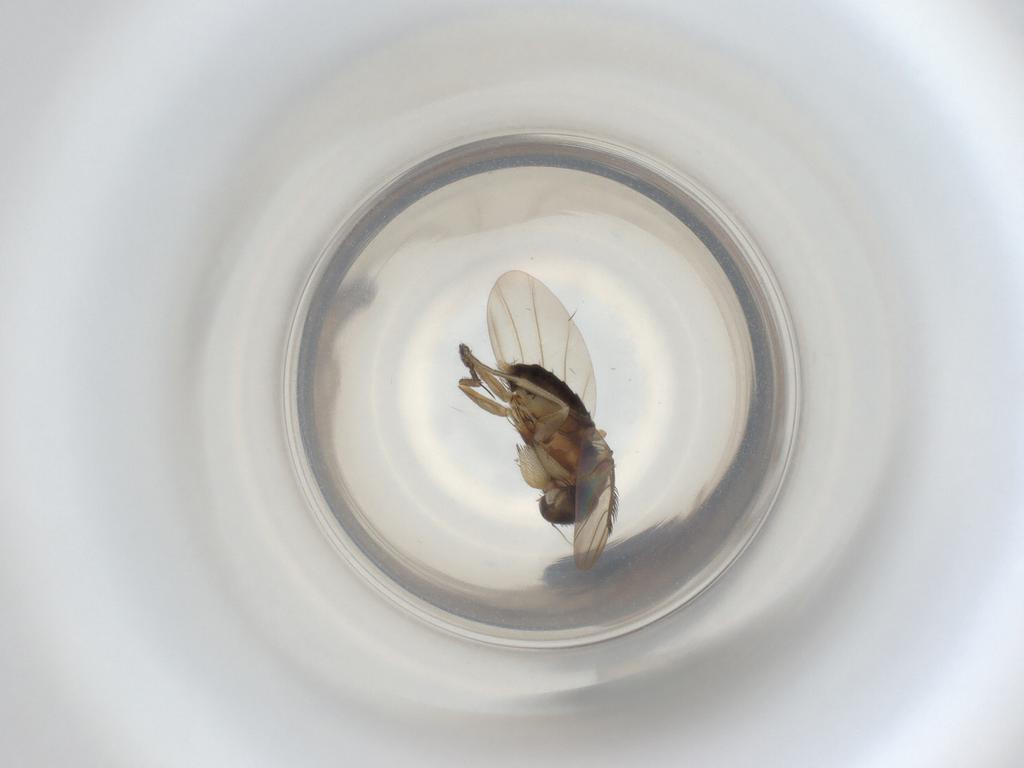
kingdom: Animalia
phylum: Arthropoda
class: Insecta
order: Diptera
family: Phoridae
